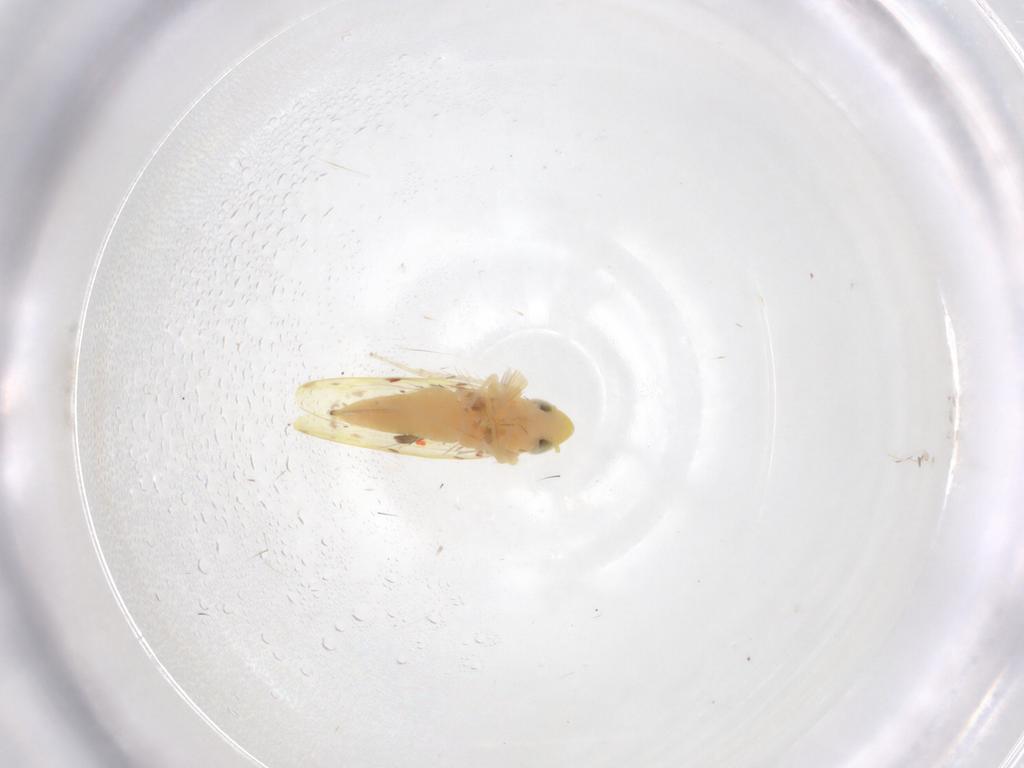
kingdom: Animalia
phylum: Arthropoda
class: Insecta
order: Hemiptera
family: Cicadellidae
